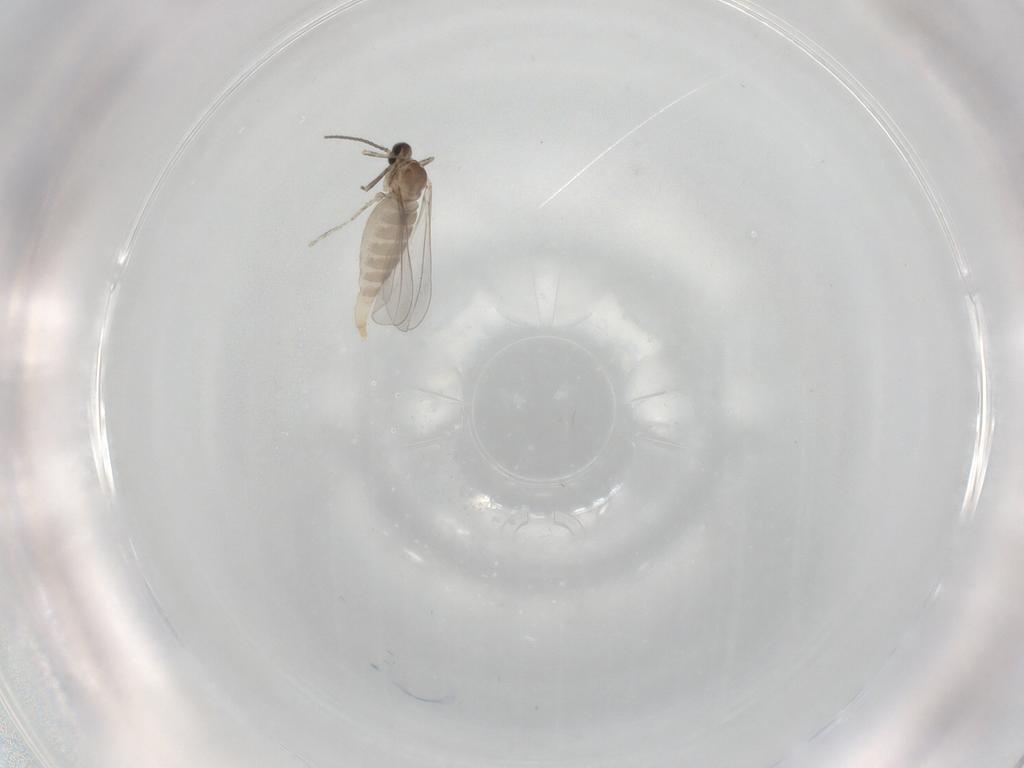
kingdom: Animalia
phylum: Arthropoda
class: Insecta
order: Diptera
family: Cecidomyiidae
